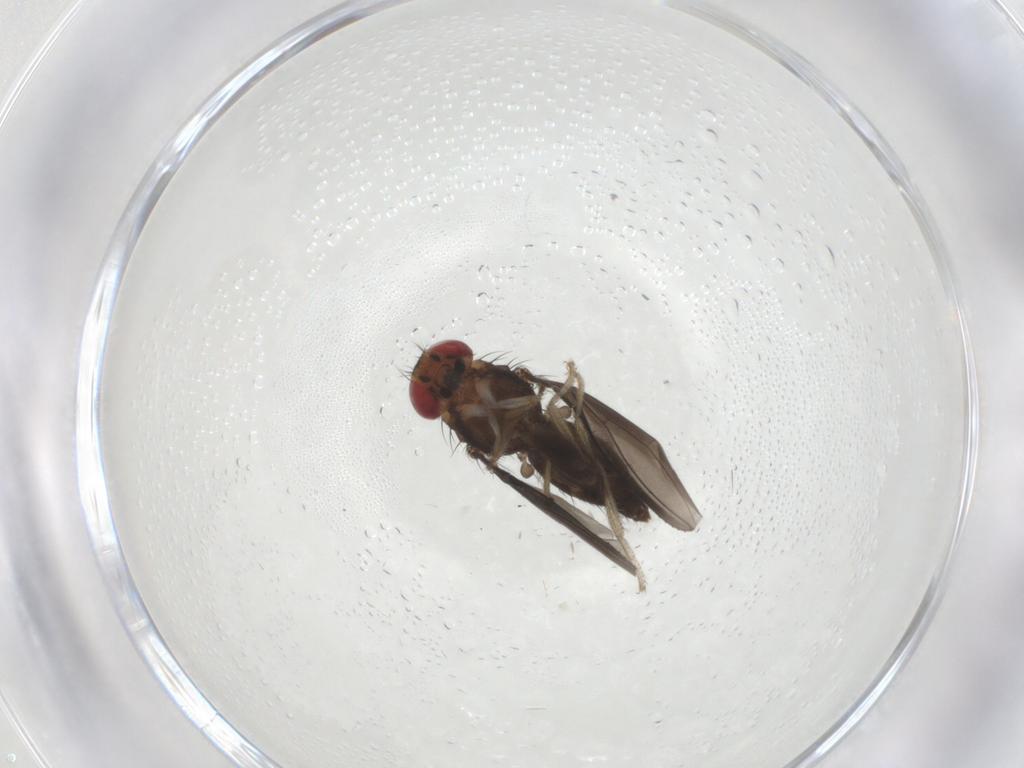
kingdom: Animalia
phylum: Arthropoda
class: Insecta
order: Diptera
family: Drosophilidae
